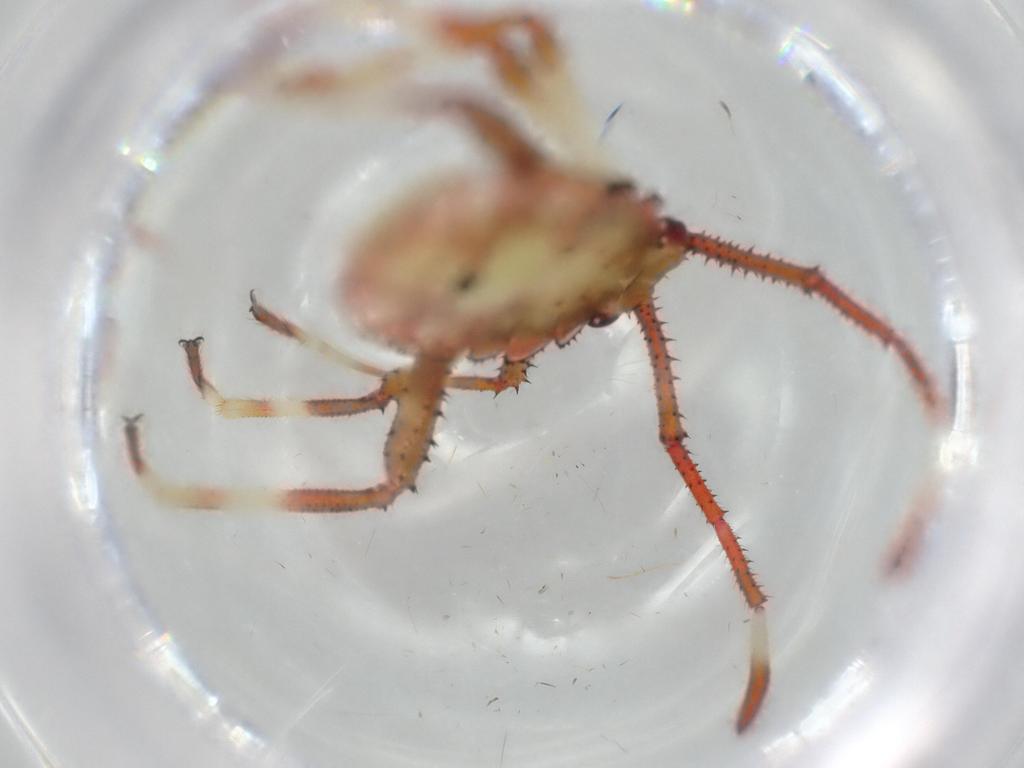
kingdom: Animalia
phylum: Arthropoda
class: Insecta
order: Hemiptera
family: Coreidae
